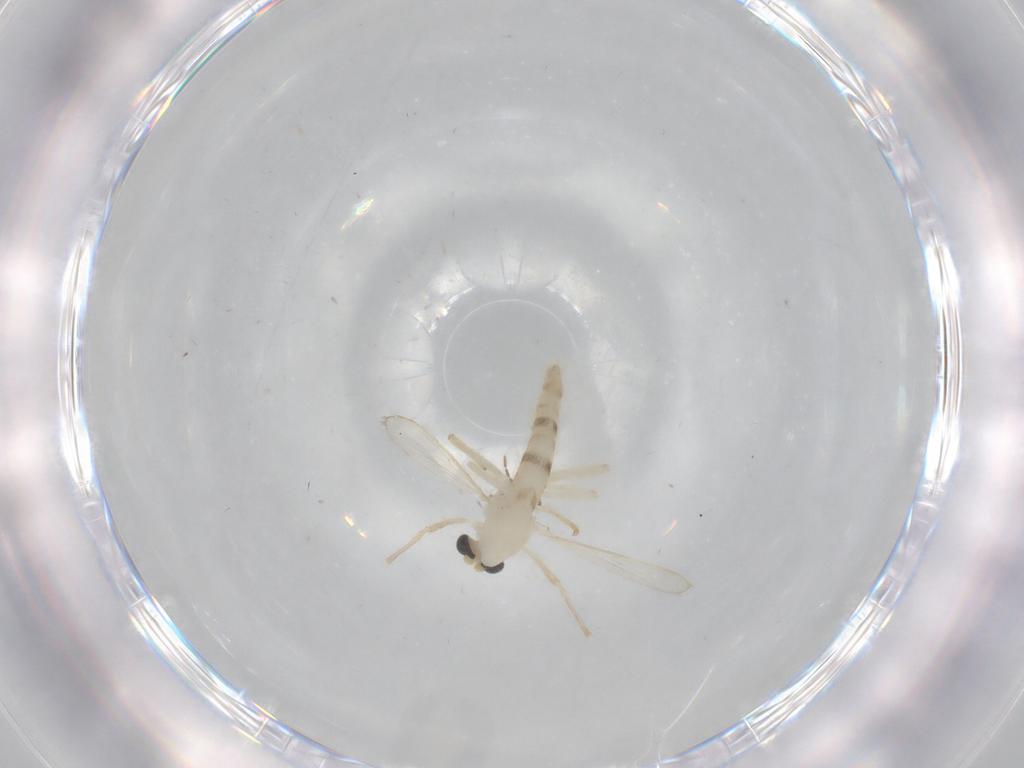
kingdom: Animalia
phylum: Arthropoda
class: Insecta
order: Diptera
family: Chironomidae
